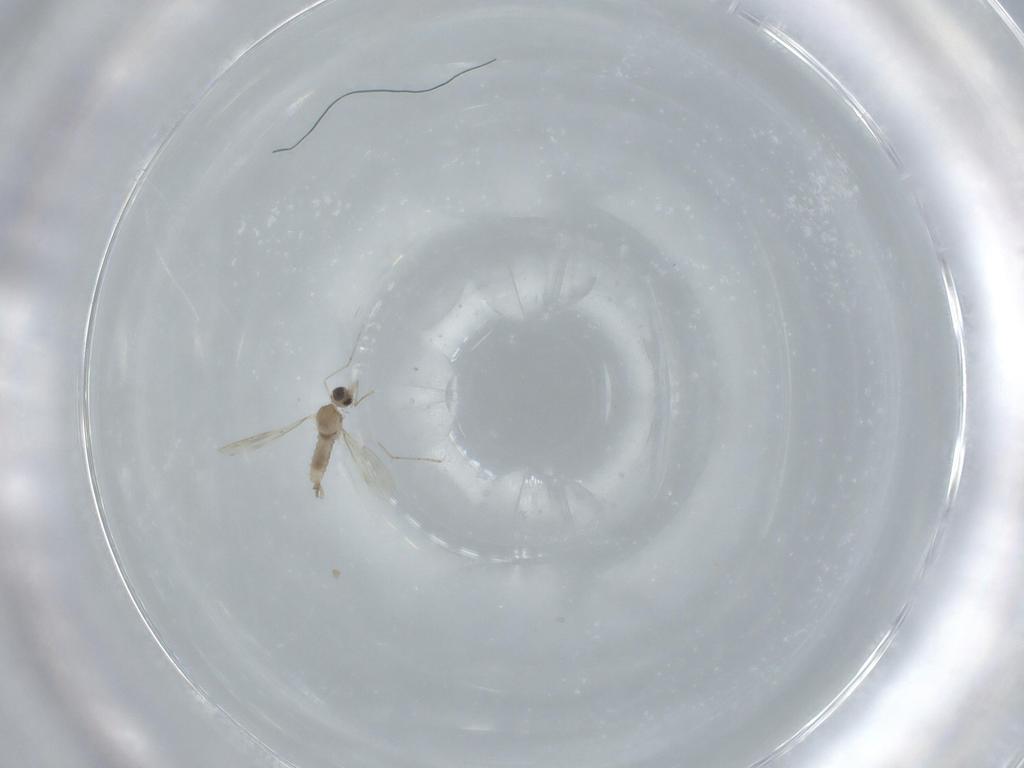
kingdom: Animalia
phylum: Arthropoda
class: Insecta
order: Diptera
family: Cecidomyiidae
